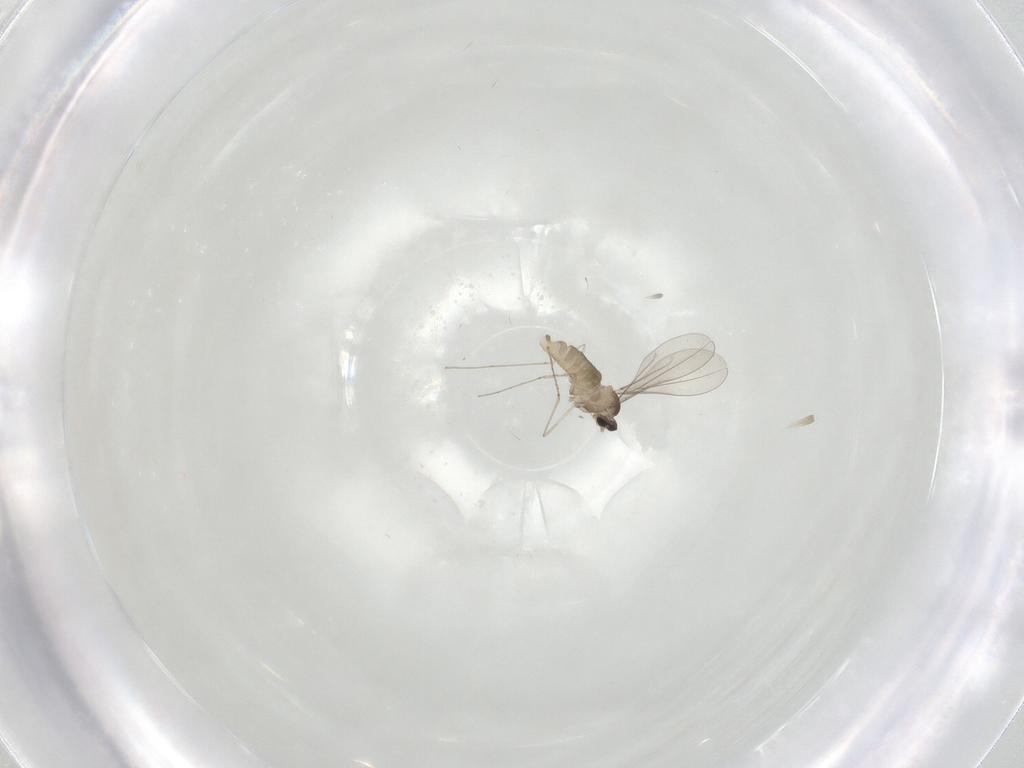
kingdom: Animalia
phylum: Arthropoda
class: Insecta
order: Diptera
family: Cecidomyiidae
